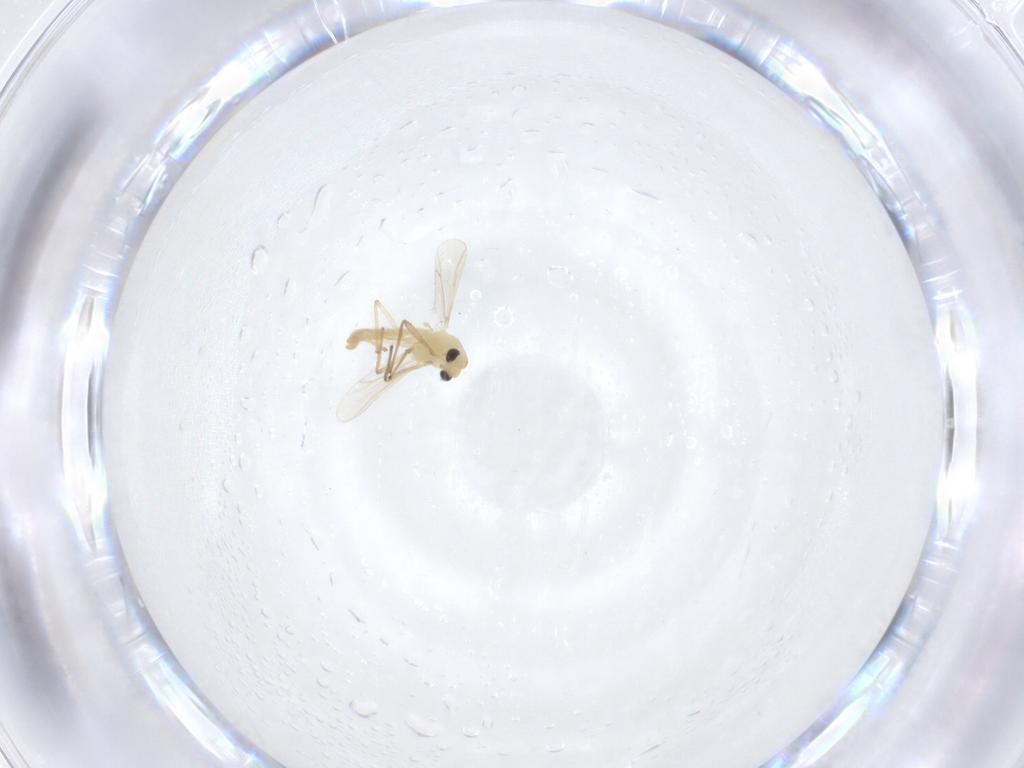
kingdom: Animalia
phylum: Arthropoda
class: Insecta
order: Diptera
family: Chironomidae
